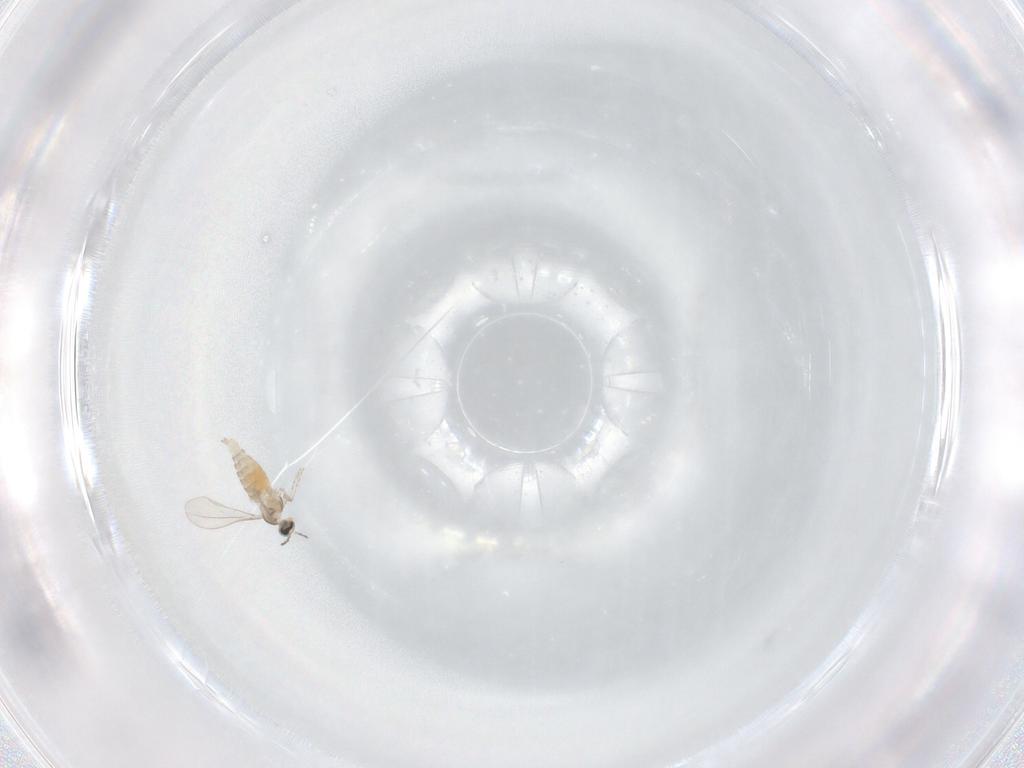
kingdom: Animalia
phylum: Arthropoda
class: Insecta
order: Diptera
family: Cecidomyiidae
